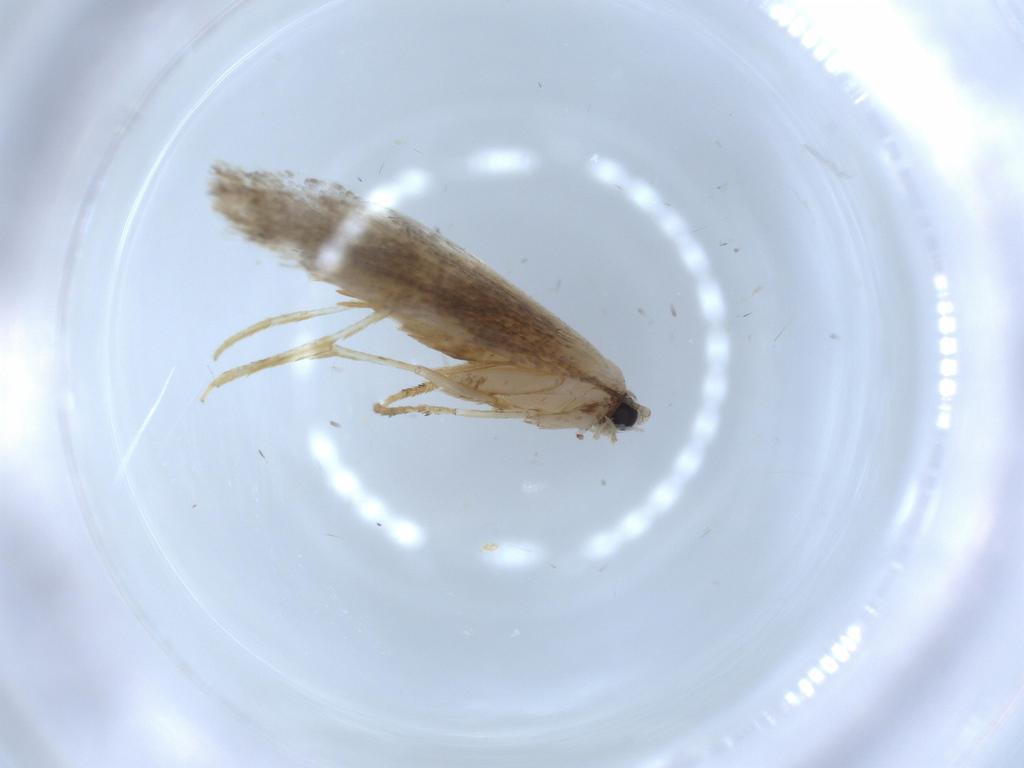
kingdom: Animalia
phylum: Arthropoda
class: Insecta
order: Lepidoptera
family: Tineidae
